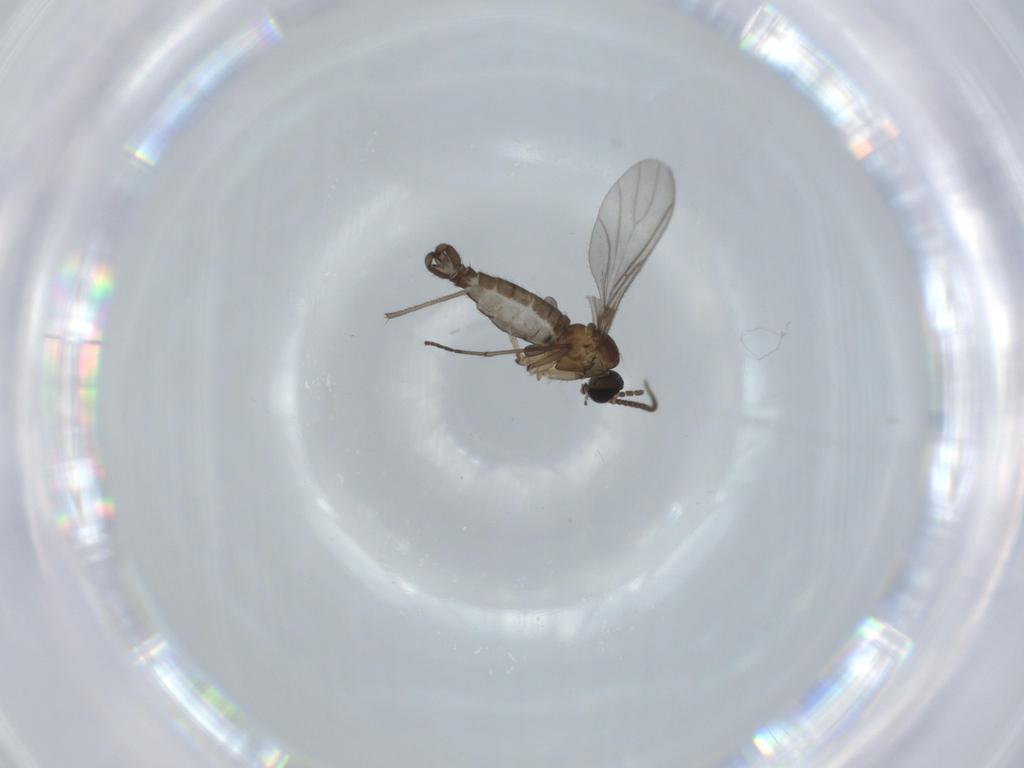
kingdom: Animalia
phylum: Arthropoda
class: Insecta
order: Diptera
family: Sciaridae
